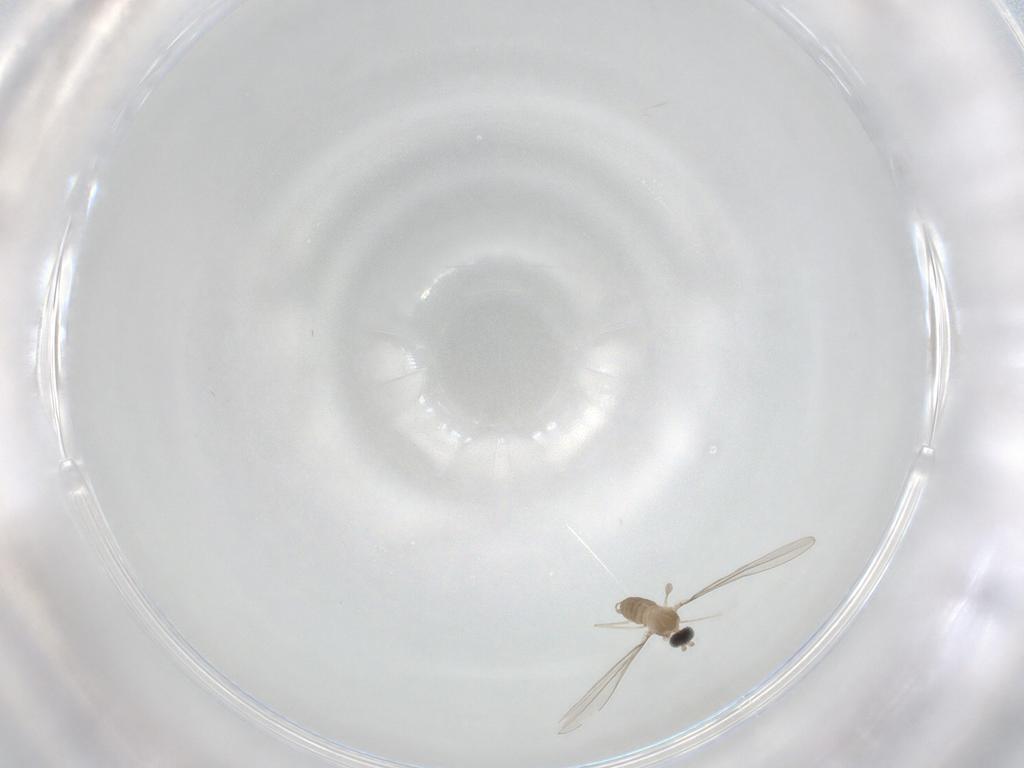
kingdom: Animalia
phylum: Arthropoda
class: Insecta
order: Diptera
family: Cecidomyiidae
